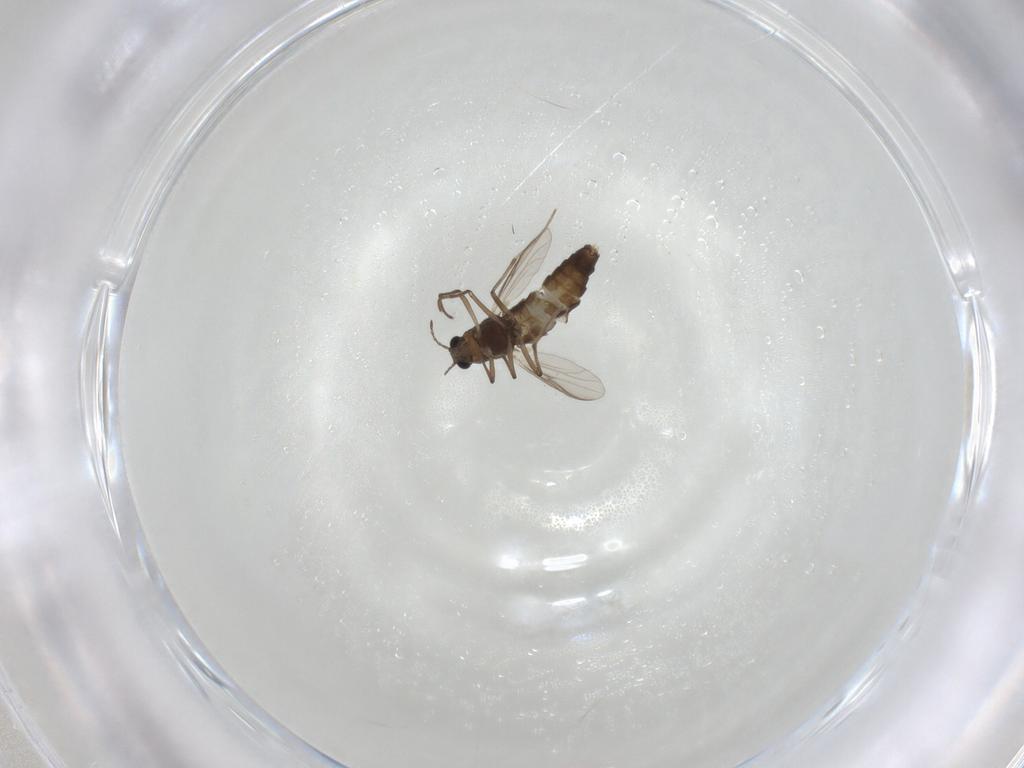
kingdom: Animalia
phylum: Arthropoda
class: Insecta
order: Diptera
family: Chironomidae
